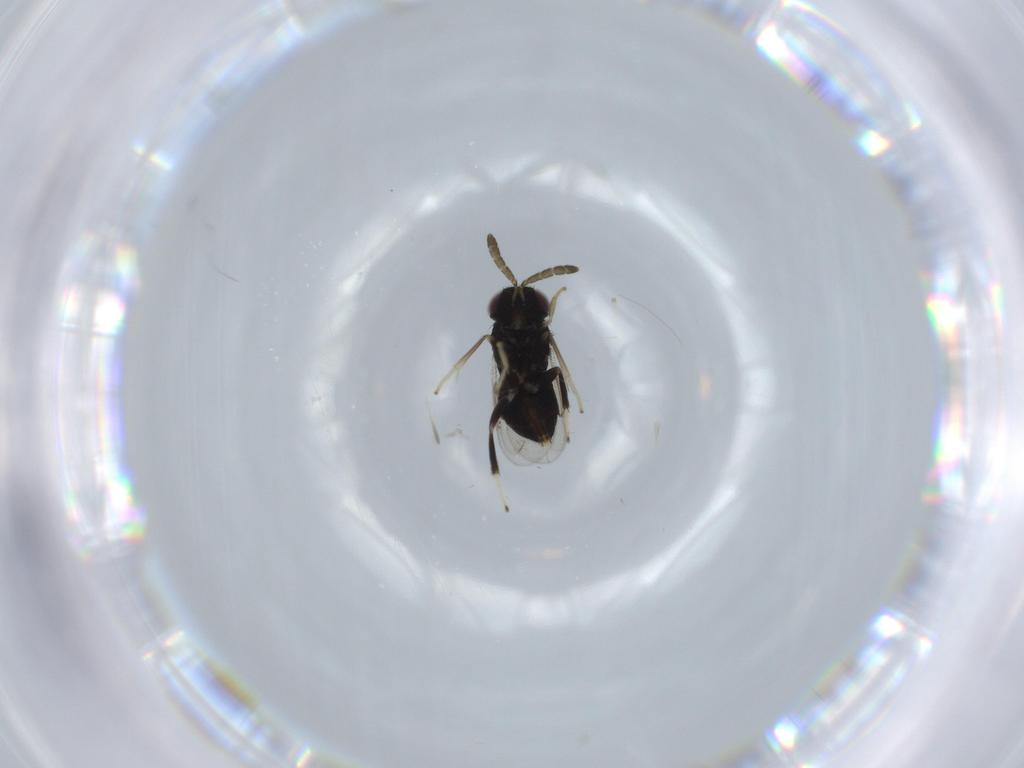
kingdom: Animalia
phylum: Arthropoda
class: Insecta
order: Hymenoptera
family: Aphelinidae
